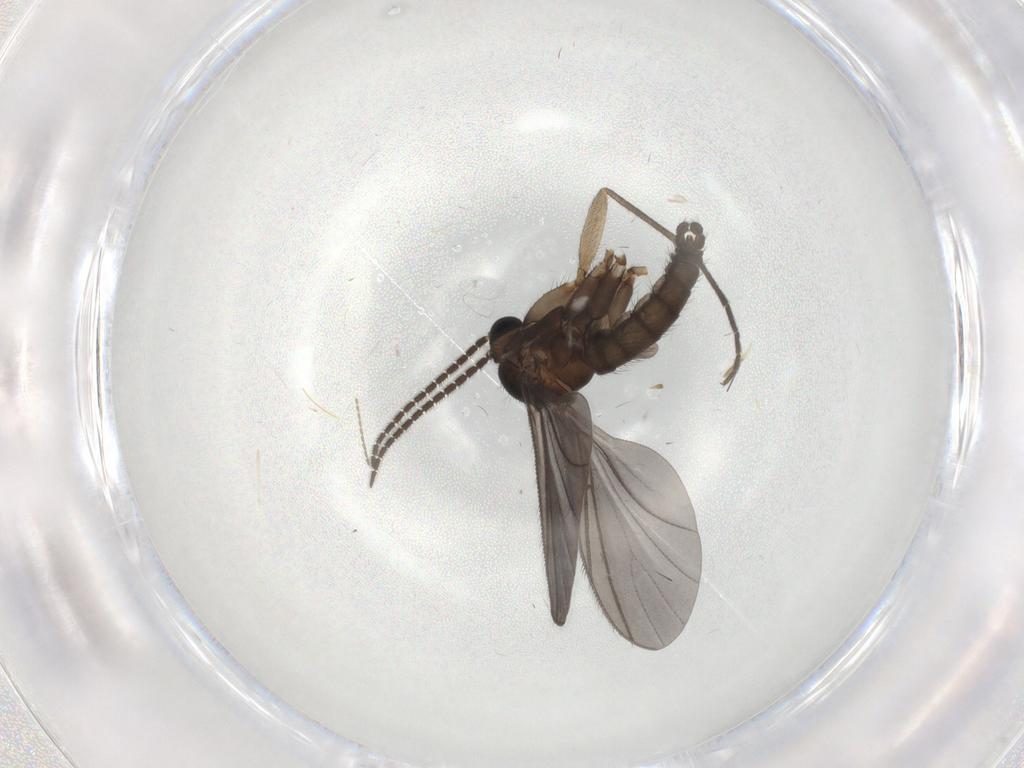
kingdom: Animalia
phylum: Arthropoda
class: Insecta
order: Diptera
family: Sciaridae
